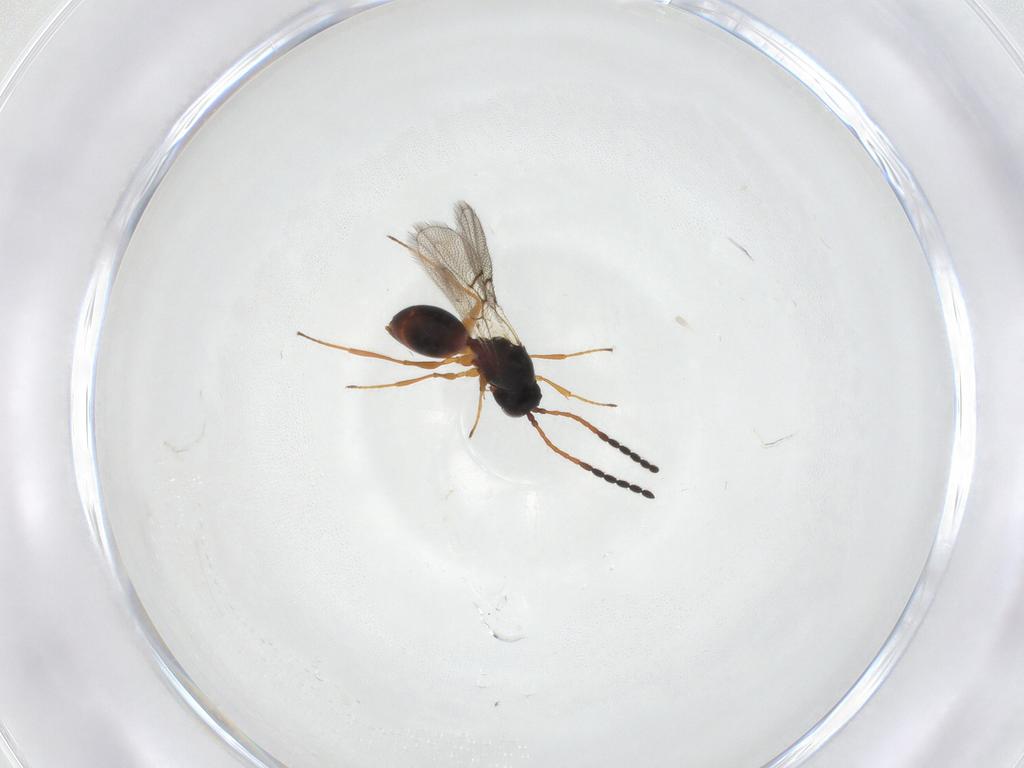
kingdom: Animalia
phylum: Arthropoda
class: Insecta
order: Hymenoptera
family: Figitidae
